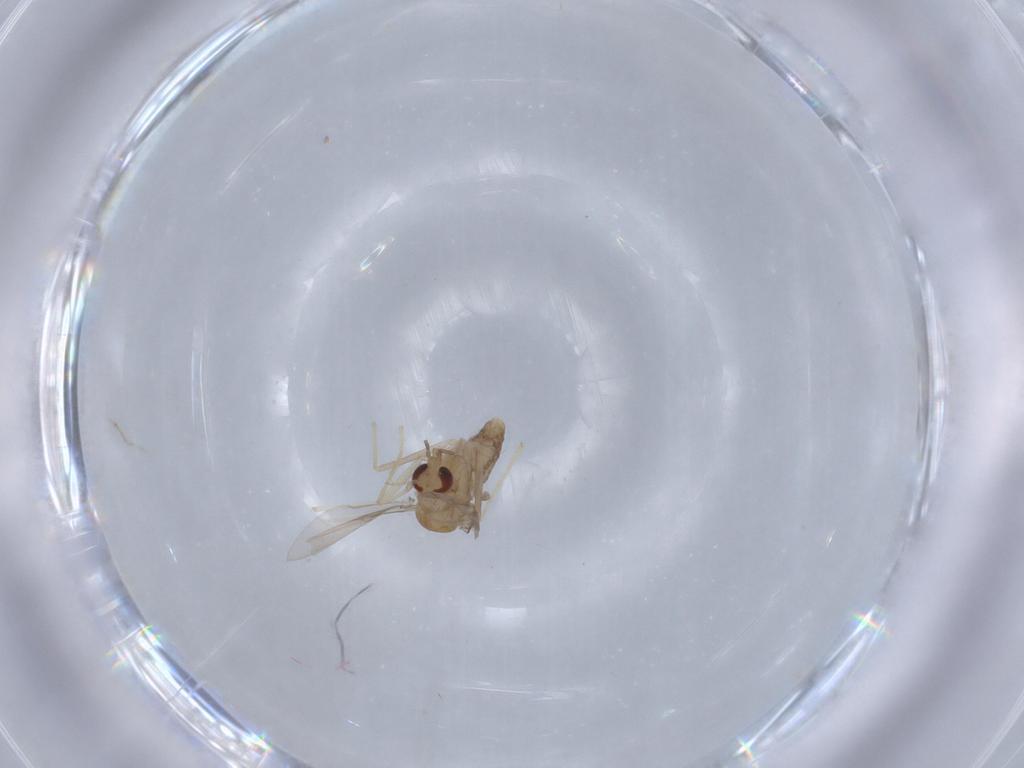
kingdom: Animalia
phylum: Arthropoda
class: Insecta
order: Diptera
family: Chironomidae
